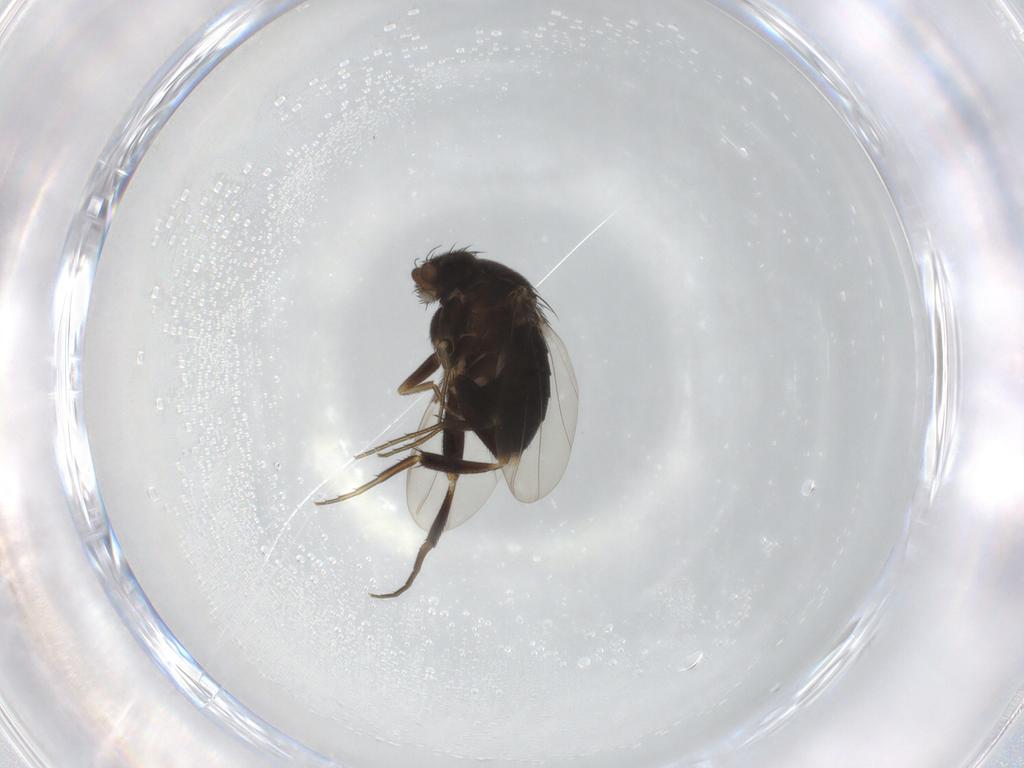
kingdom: Animalia
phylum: Arthropoda
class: Insecta
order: Diptera
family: Phoridae
